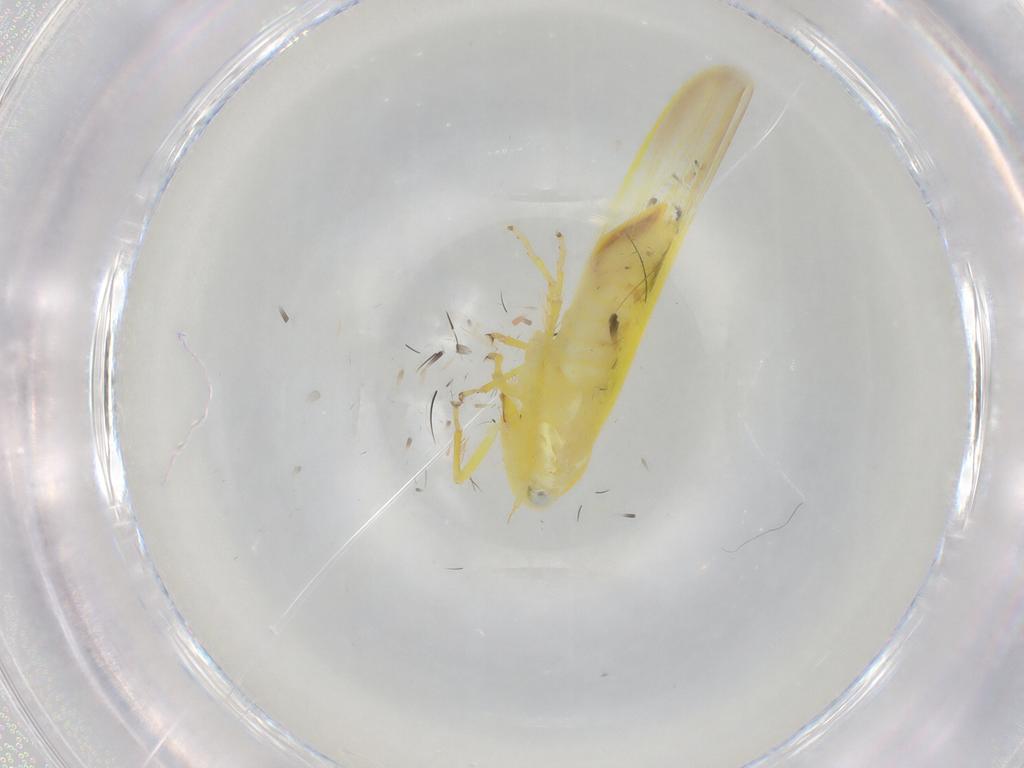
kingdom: Animalia
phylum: Arthropoda
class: Insecta
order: Hemiptera
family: Cicadellidae
